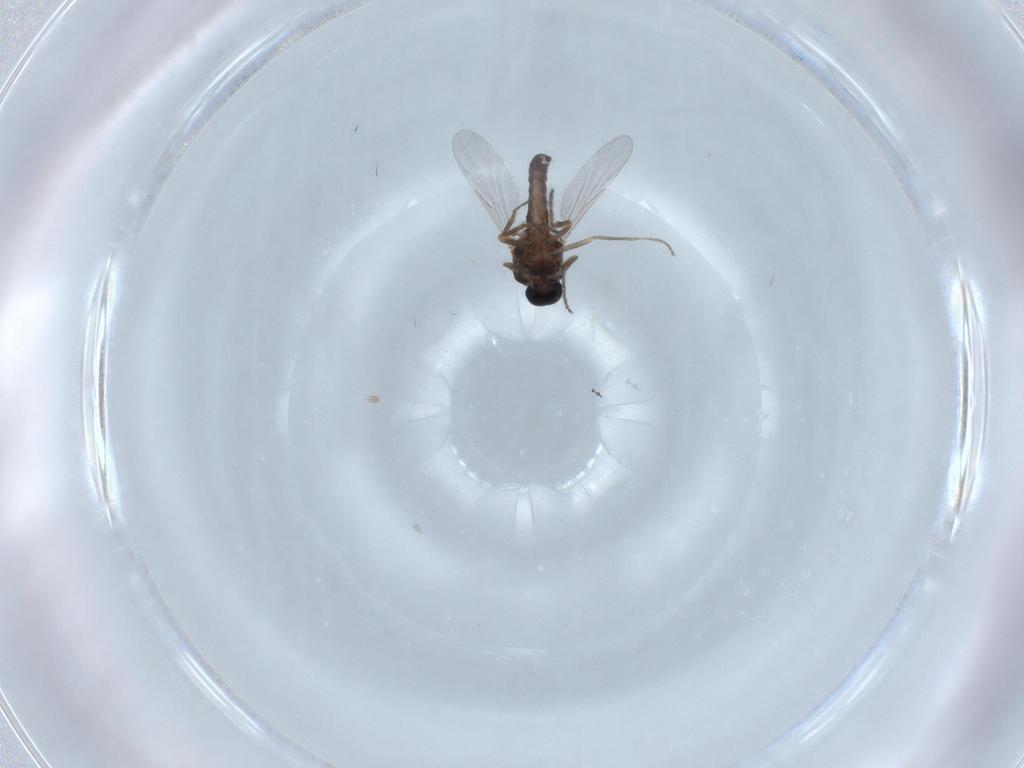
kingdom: Animalia
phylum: Arthropoda
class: Insecta
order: Diptera
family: Ceratopogonidae
